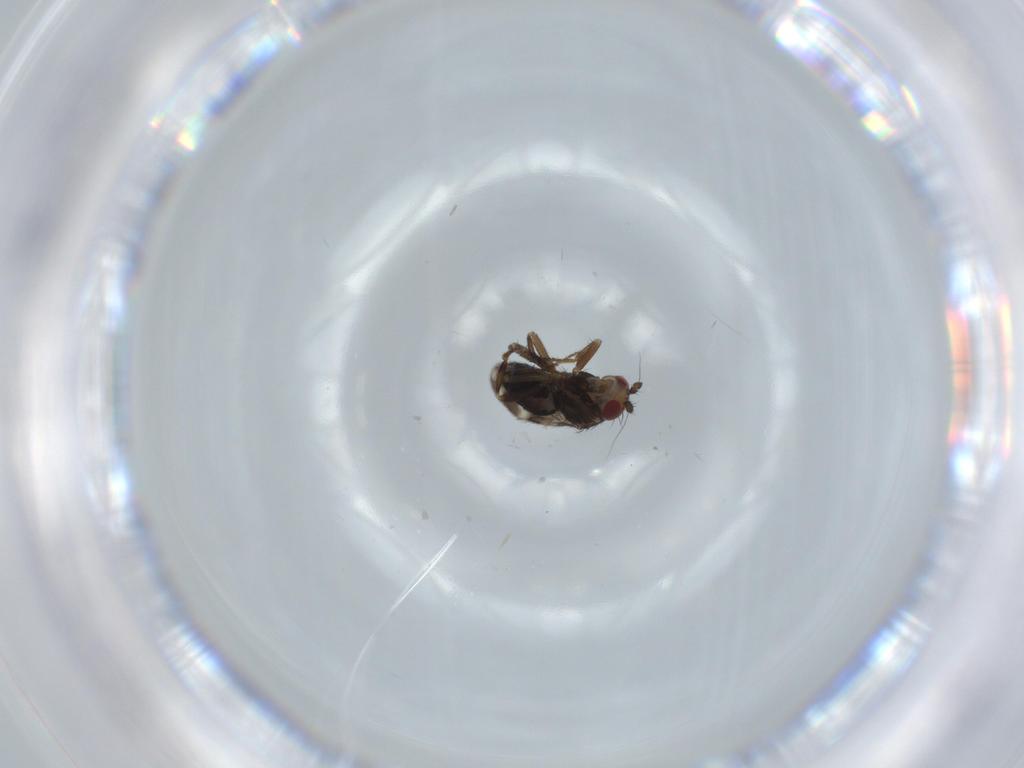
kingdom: Animalia
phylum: Arthropoda
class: Insecta
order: Diptera
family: Sphaeroceridae
